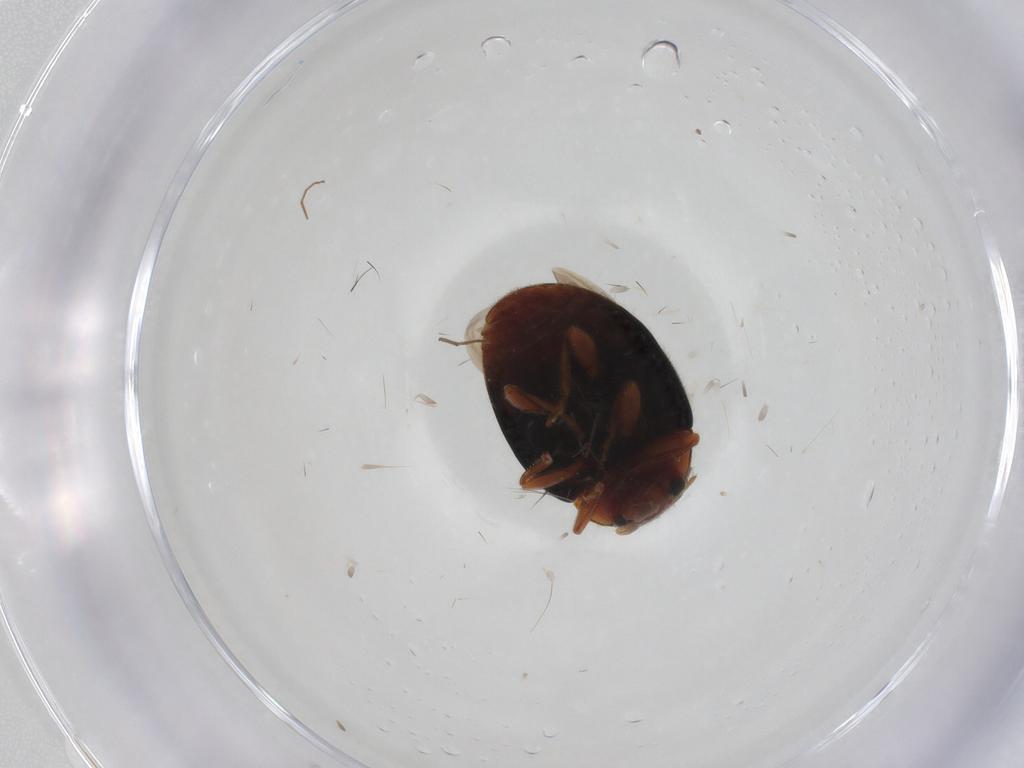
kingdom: Animalia
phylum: Arthropoda
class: Insecta
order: Coleoptera
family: Coccinellidae
